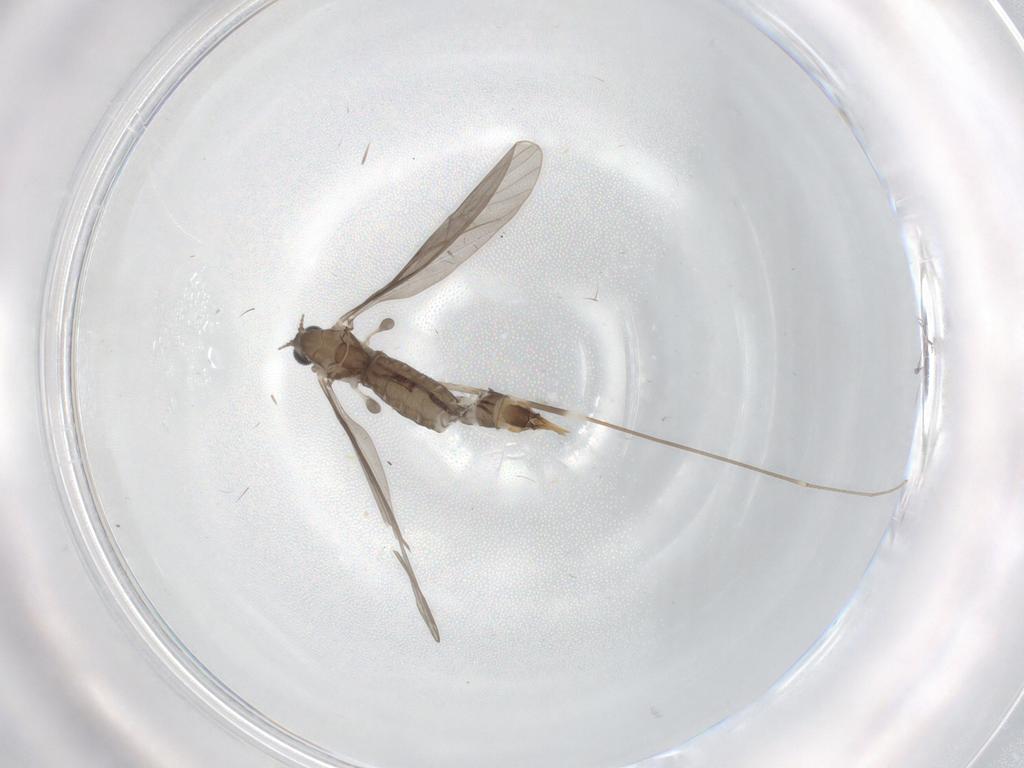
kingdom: Animalia
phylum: Arthropoda
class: Insecta
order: Diptera
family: Limoniidae
